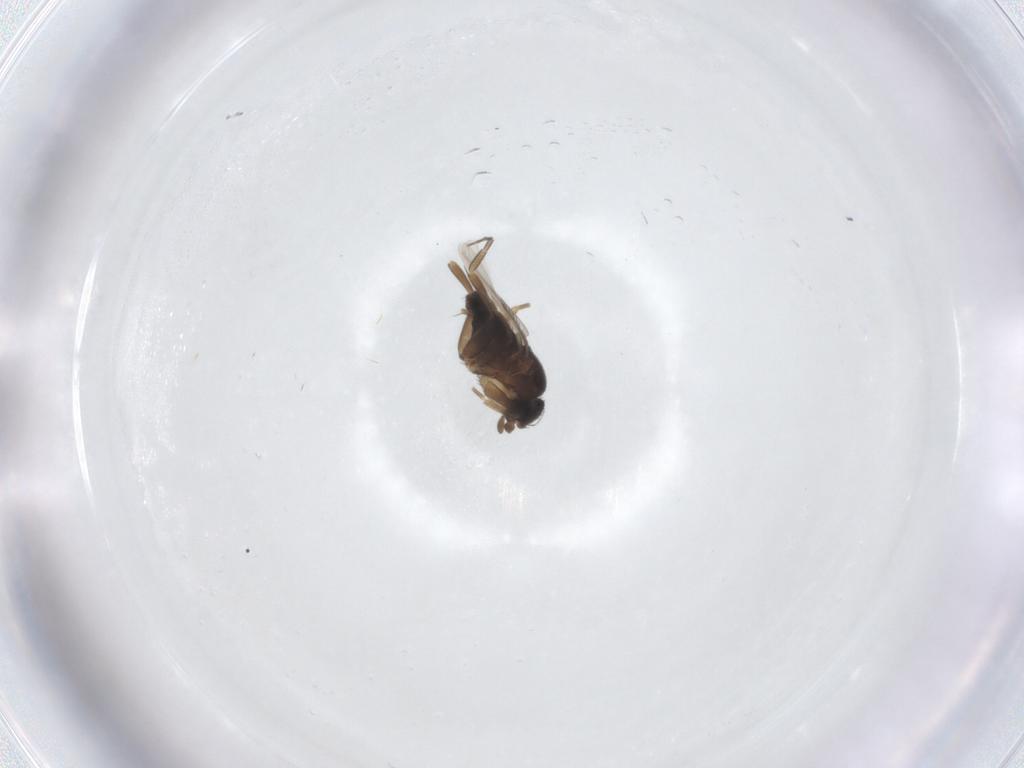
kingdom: Animalia
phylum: Arthropoda
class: Insecta
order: Diptera
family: Phoridae
